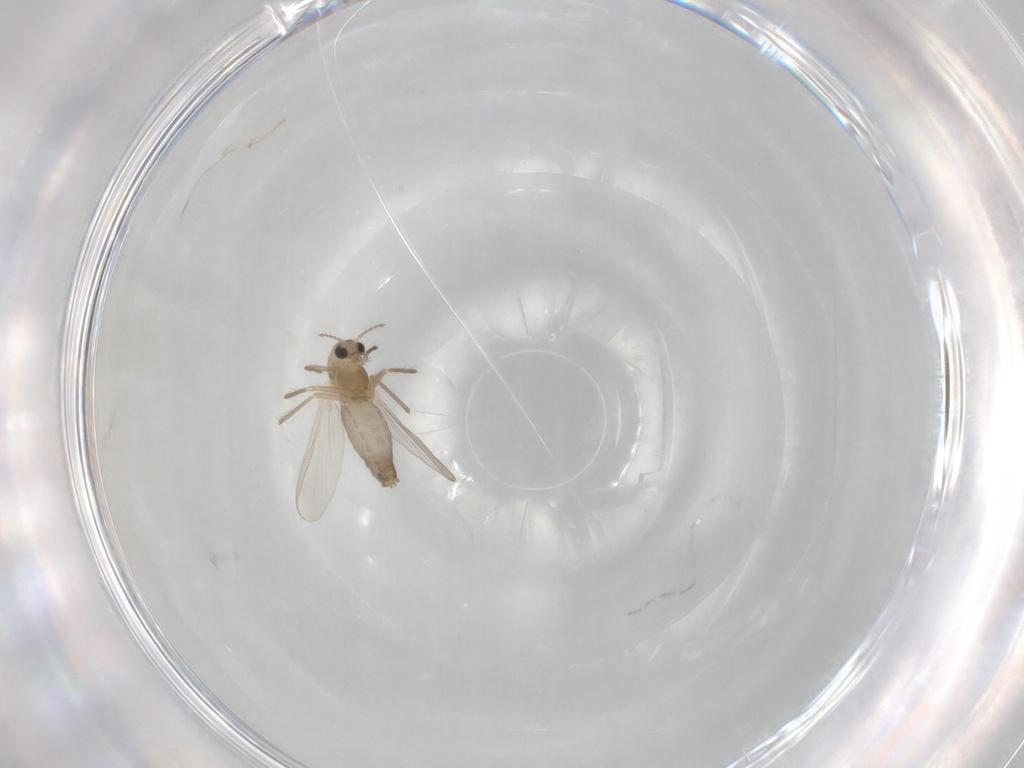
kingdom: Animalia
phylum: Arthropoda
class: Insecta
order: Diptera
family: Chironomidae
